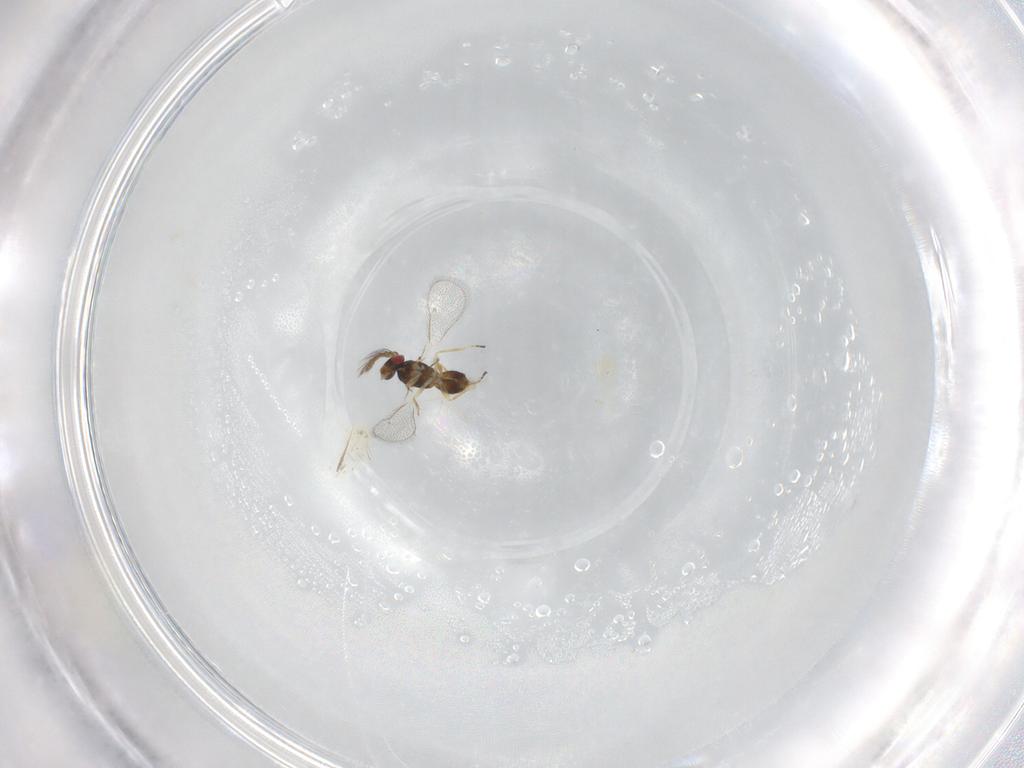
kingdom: Animalia
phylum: Arthropoda
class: Insecta
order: Hymenoptera
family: Eulophidae
